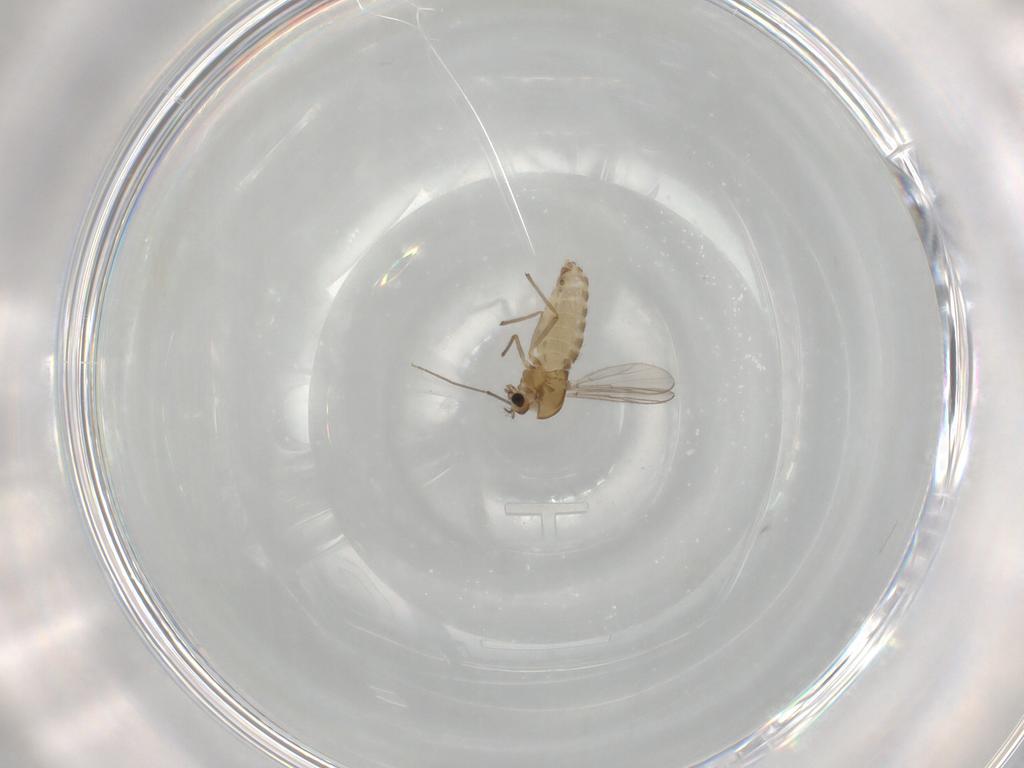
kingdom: Animalia
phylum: Arthropoda
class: Insecta
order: Diptera
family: Chironomidae
